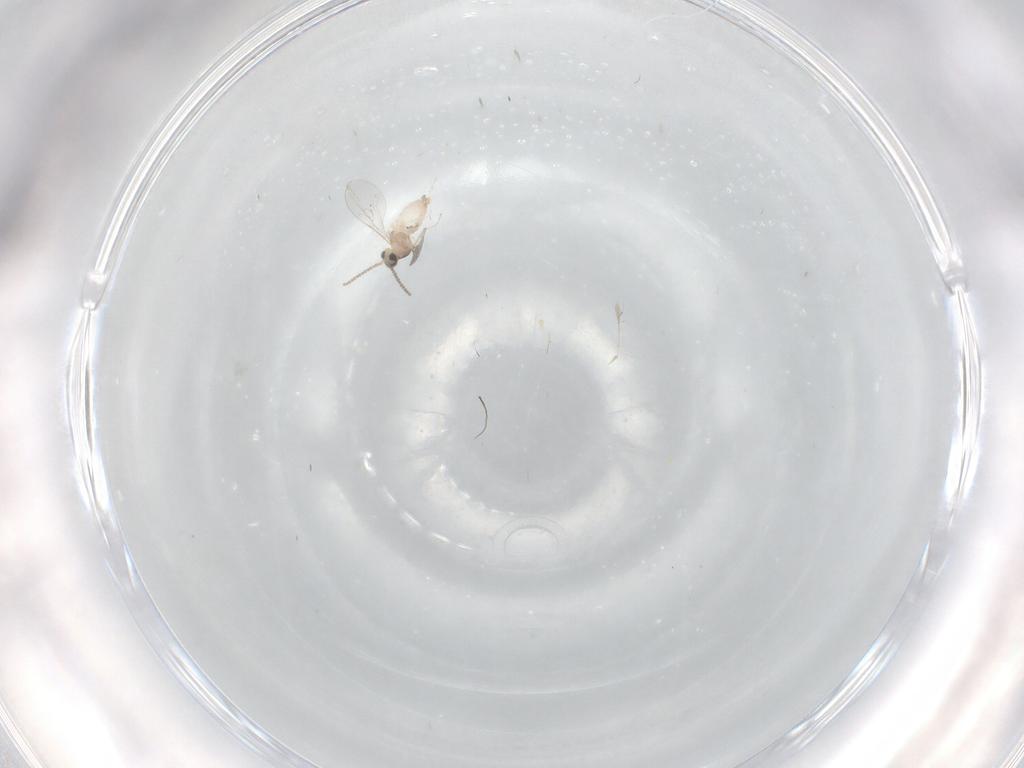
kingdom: Animalia
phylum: Arthropoda
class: Insecta
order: Diptera
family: Cecidomyiidae
